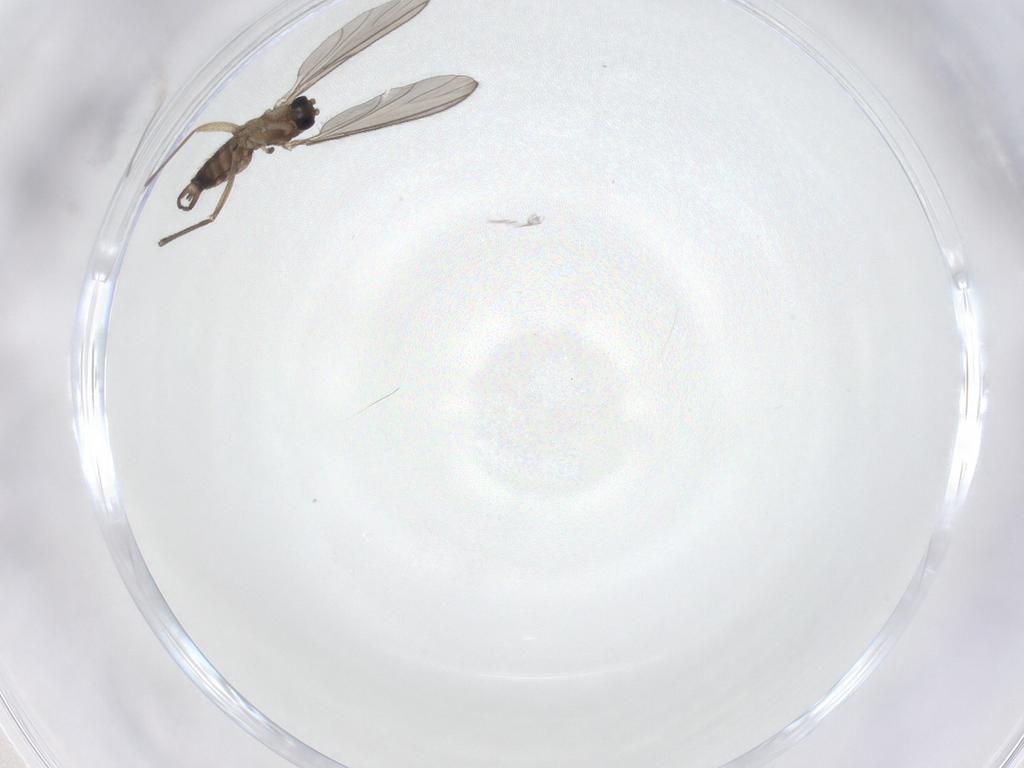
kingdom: Animalia
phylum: Arthropoda
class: Insecta
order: Diptera
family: Sciaridae
